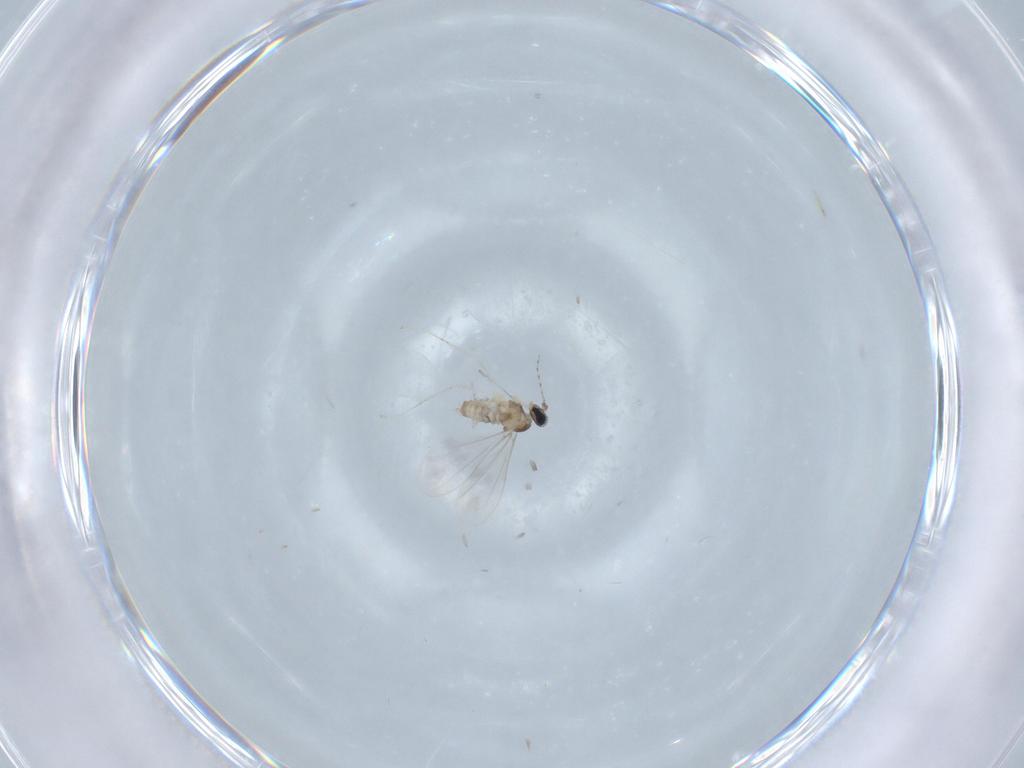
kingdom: Animalia
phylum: Arthropoda
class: Insecta
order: Diptera
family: Cecidomyiidae
